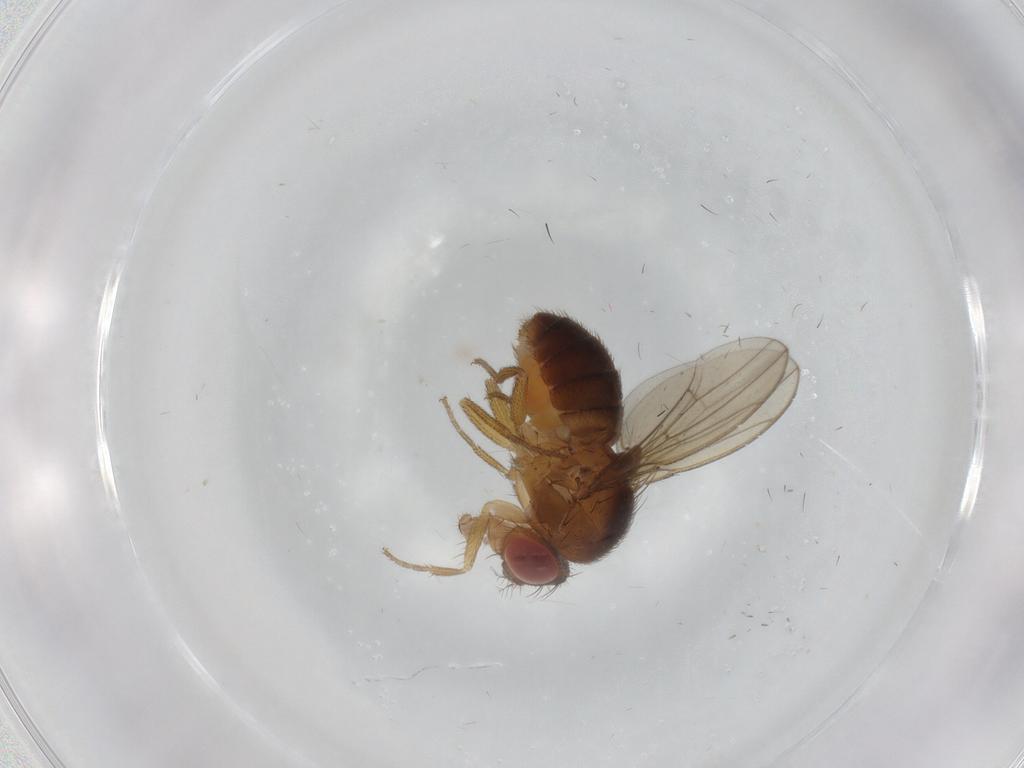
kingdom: Animalia
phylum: Arthropoda
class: Insecta
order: Diptera
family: Drosophilidae
